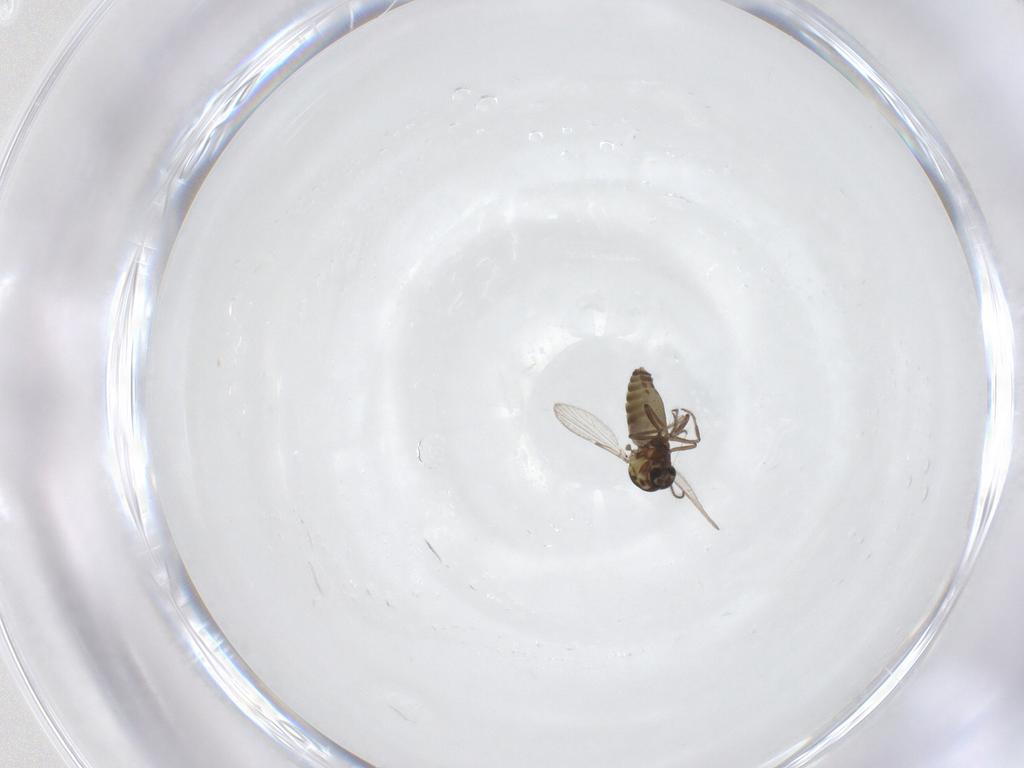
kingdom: Animalia
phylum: Arthropoda
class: Insecta
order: Diptera
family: Ceratopogonidae
